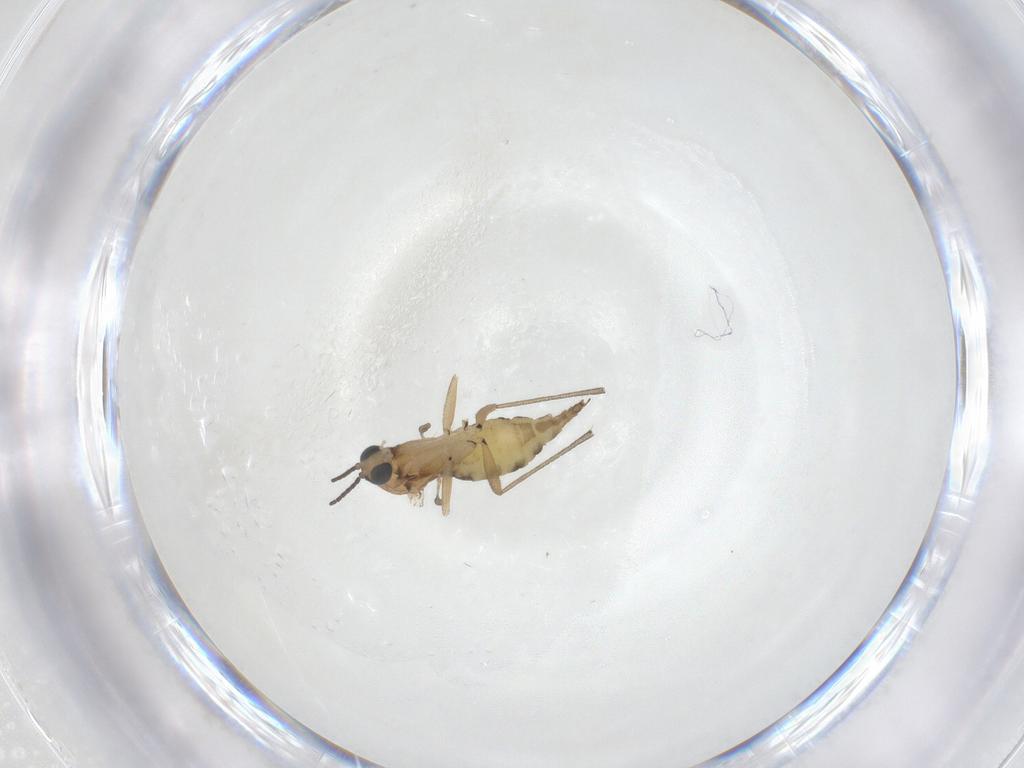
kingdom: Animalia
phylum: Arthropoda
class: Insecta
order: Diptera
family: Sciaridae
